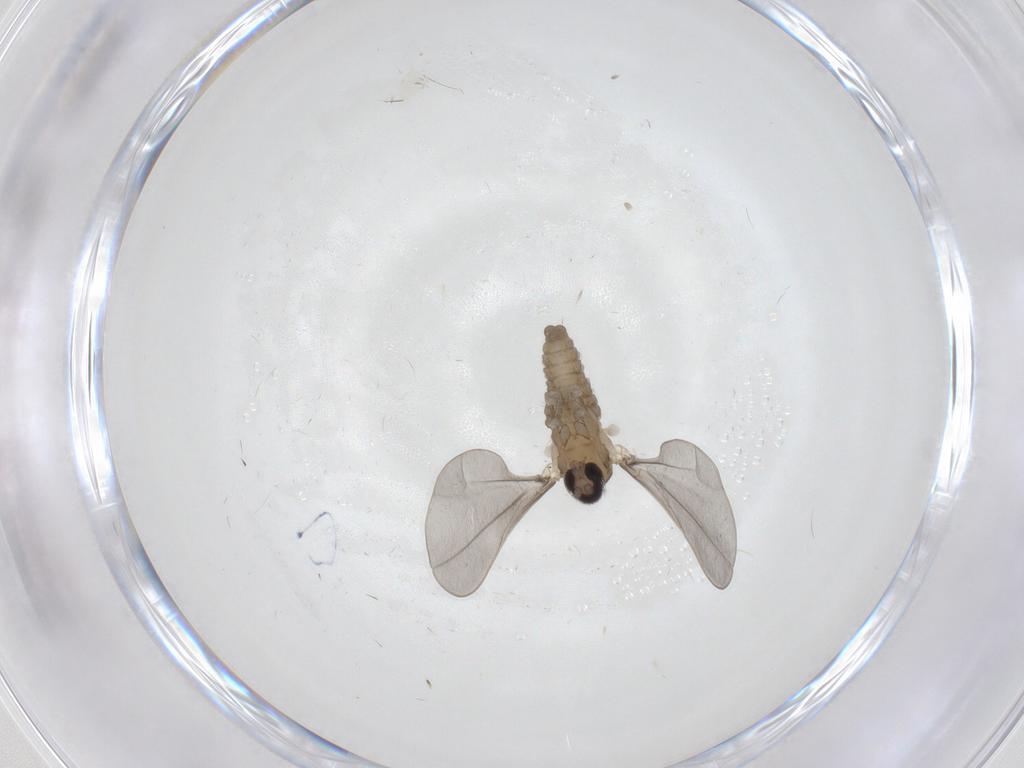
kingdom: Animalia
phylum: Arthropoda
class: Insecta
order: Diptera
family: Cecidomyiidae
